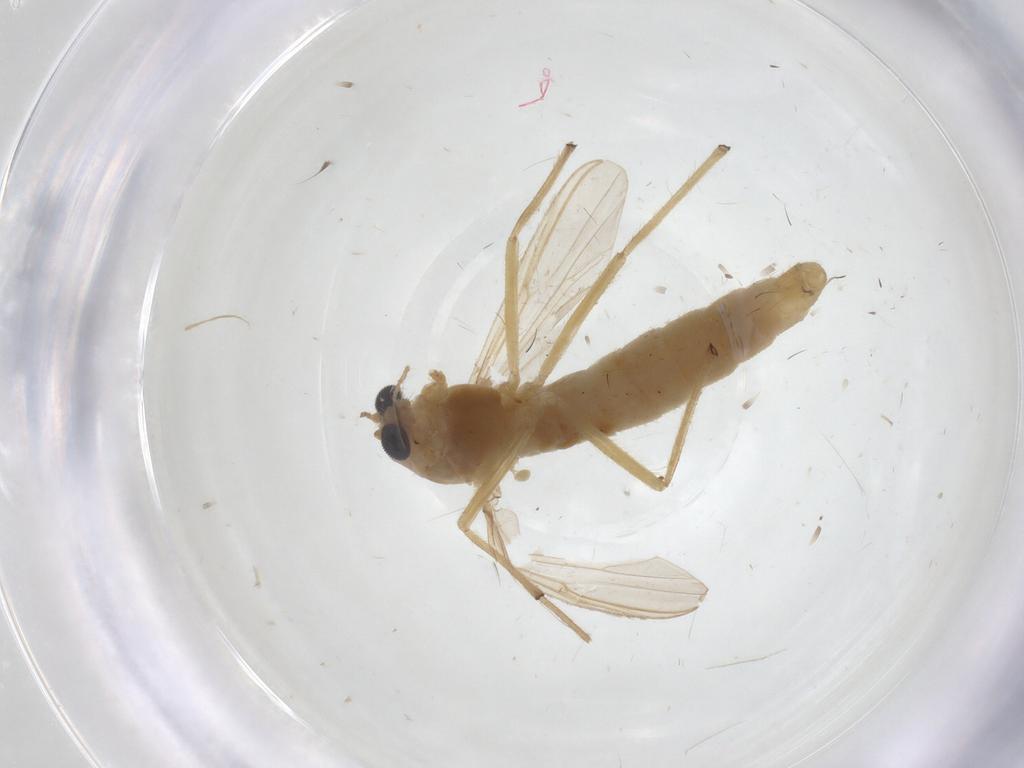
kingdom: Animalia
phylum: Arthropoda
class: Insecta
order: Diptera
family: Chironomidae
